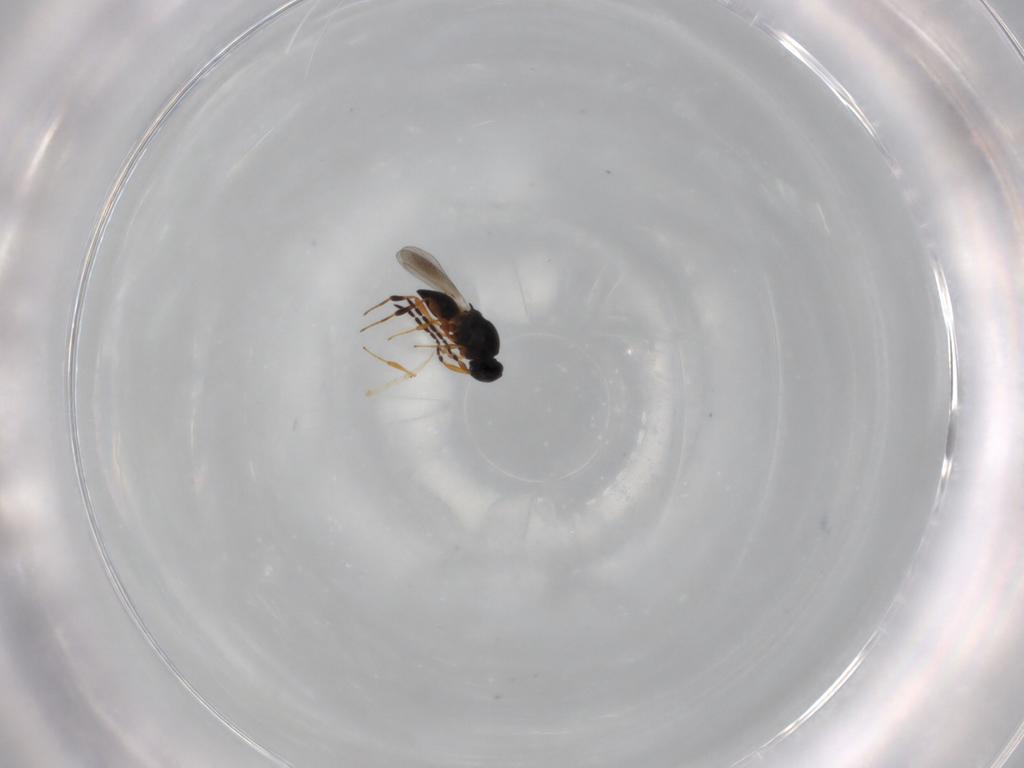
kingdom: Animalia
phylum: Arthropoda
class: Insecta
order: Hymenoptera
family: Platygastridae
